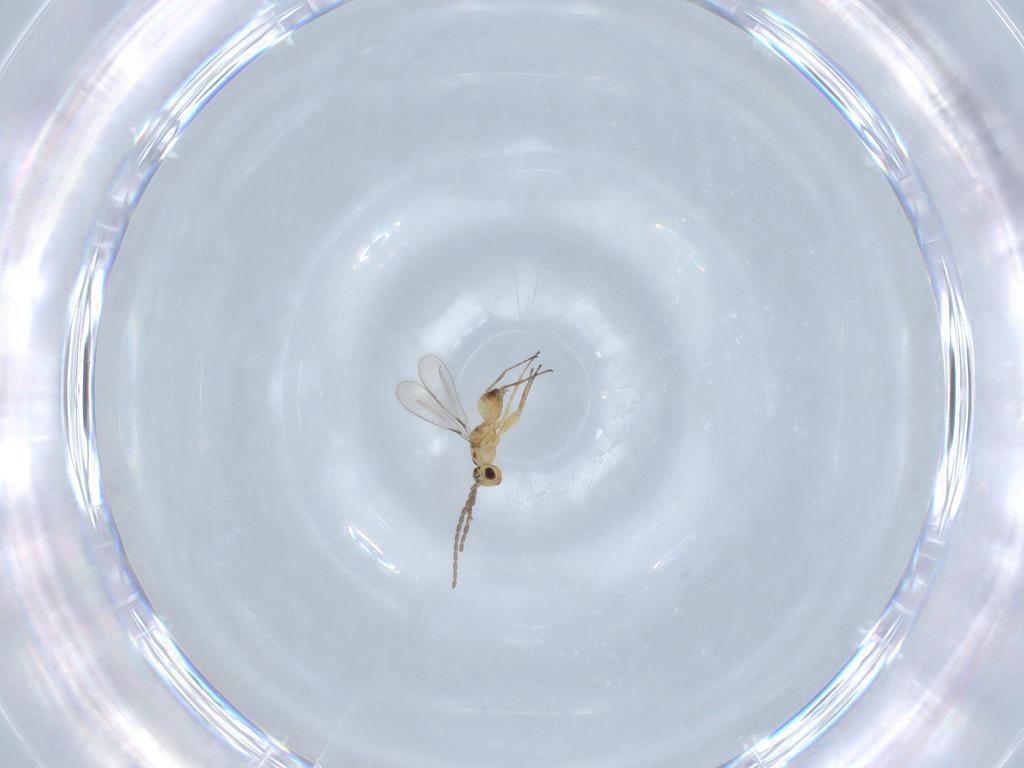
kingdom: Animalia
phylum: Arthropoda
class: Insecta
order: Hymenoptera
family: Mymaridae
